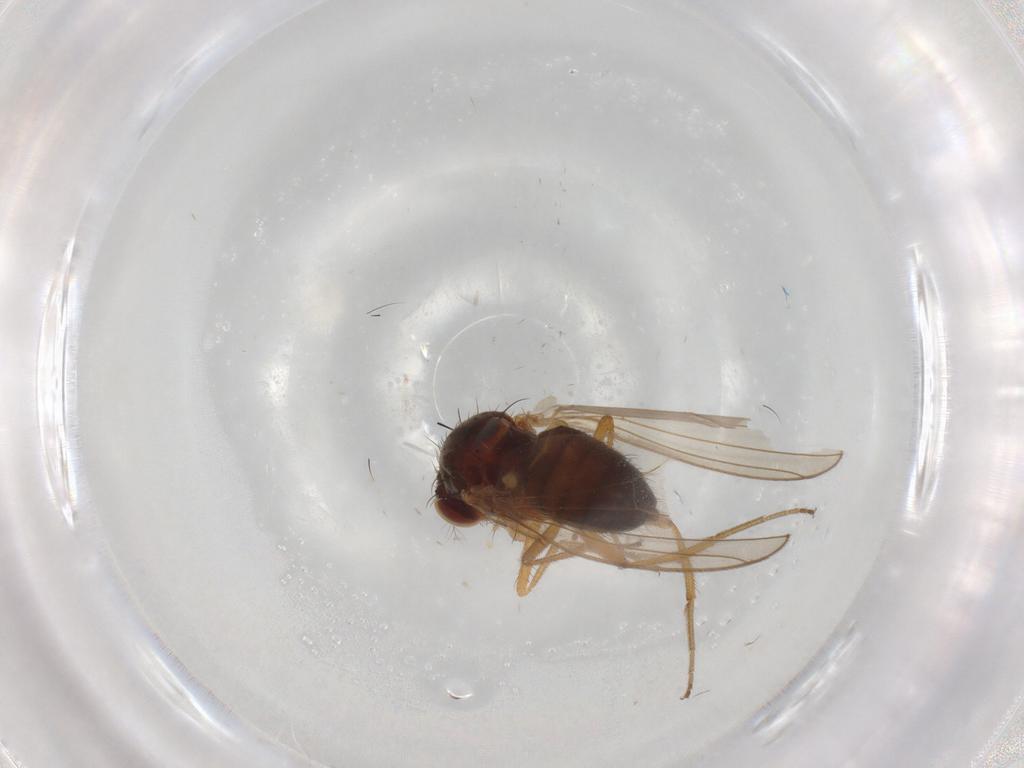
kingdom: Animalia
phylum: Arthropoda
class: Insecta
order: Diptera
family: Drosophilidae
